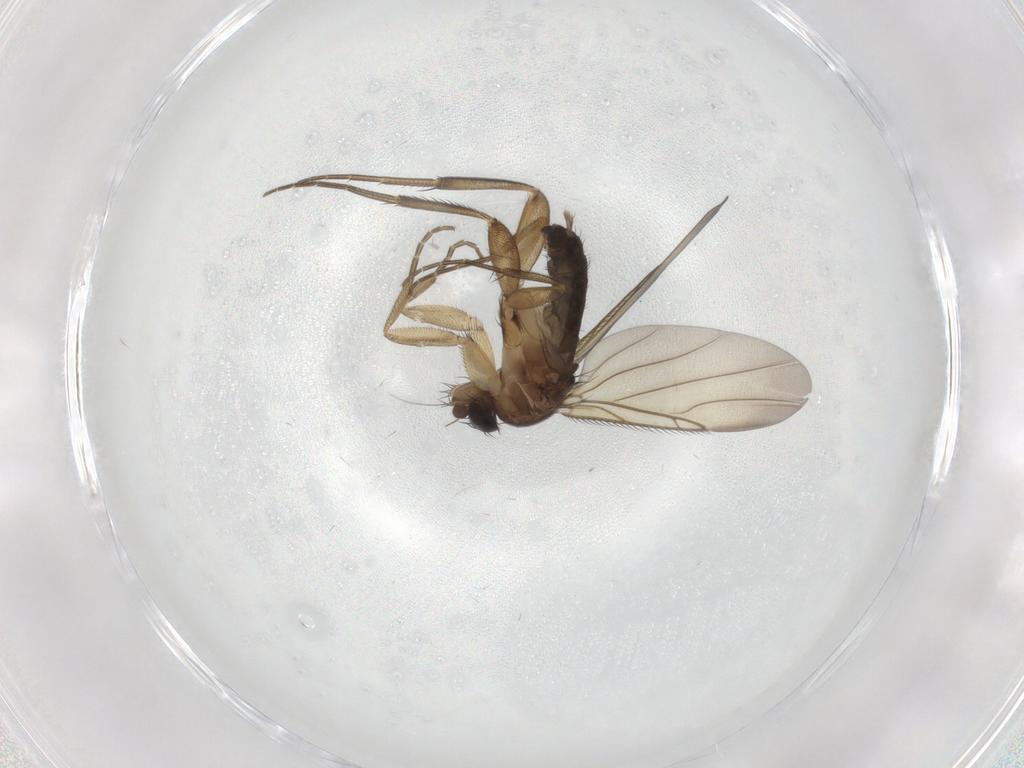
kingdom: Animalia
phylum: Arthropoda
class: Insecta
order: Diptera
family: Phoridae
